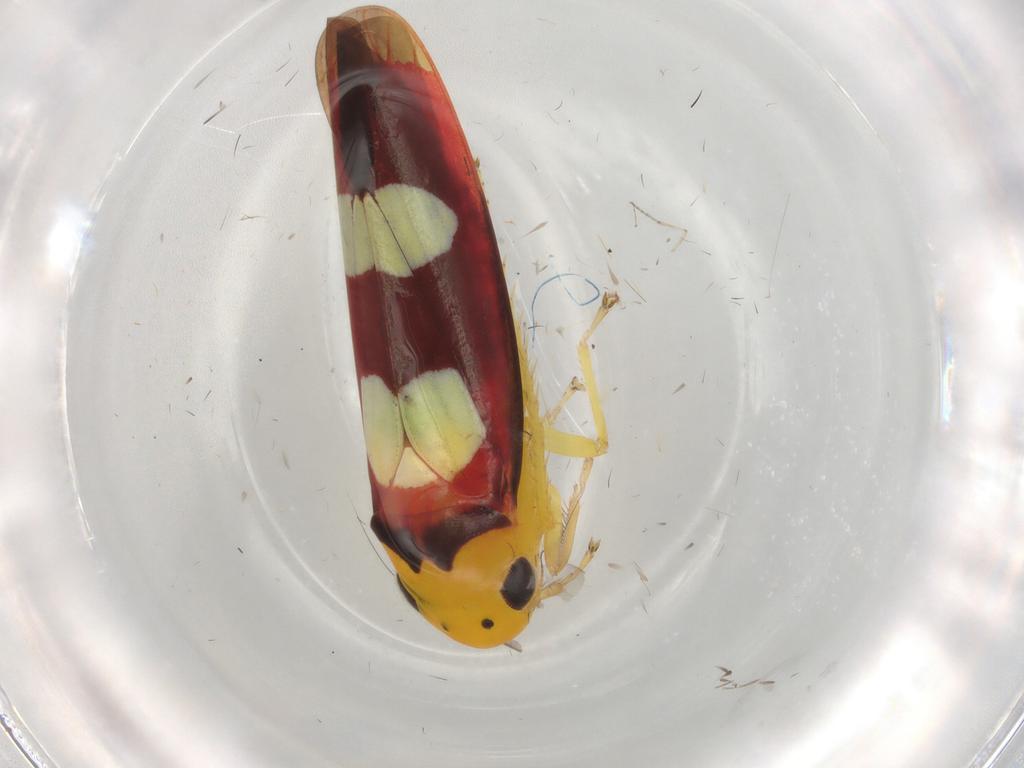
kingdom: Animalia
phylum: Arthropoda
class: Insecta
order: Hemiptera
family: Cicadellidae
